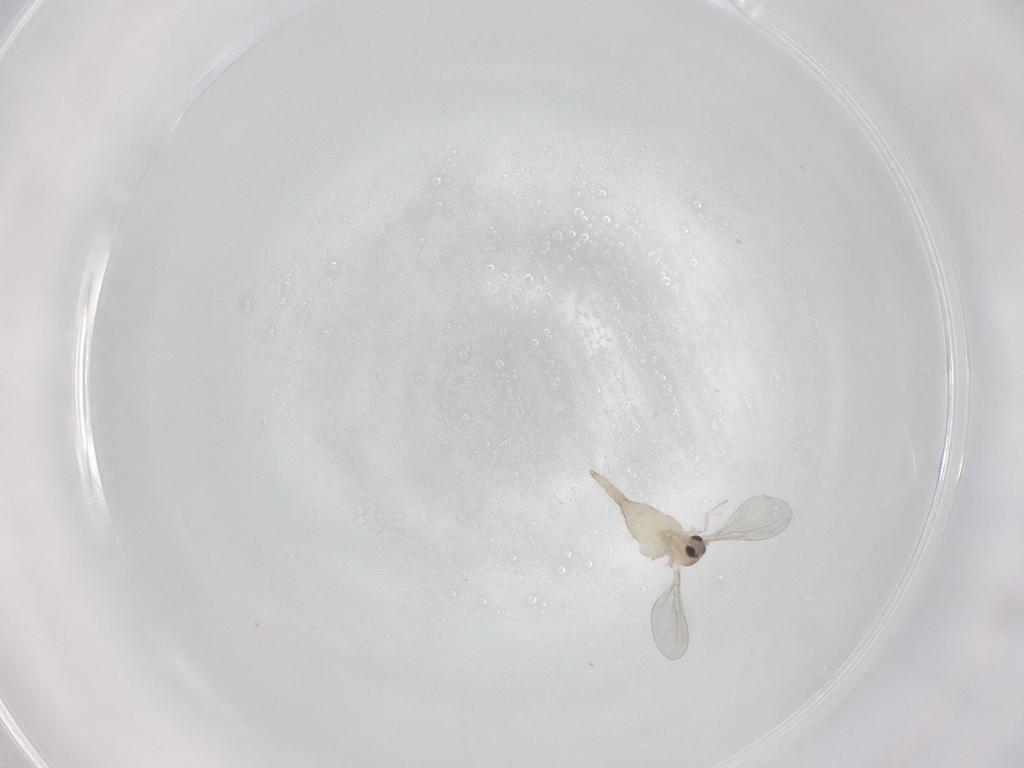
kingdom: Animalia
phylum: Arthropoda
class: Insecta
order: Diptera
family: Cecidomyiidae
